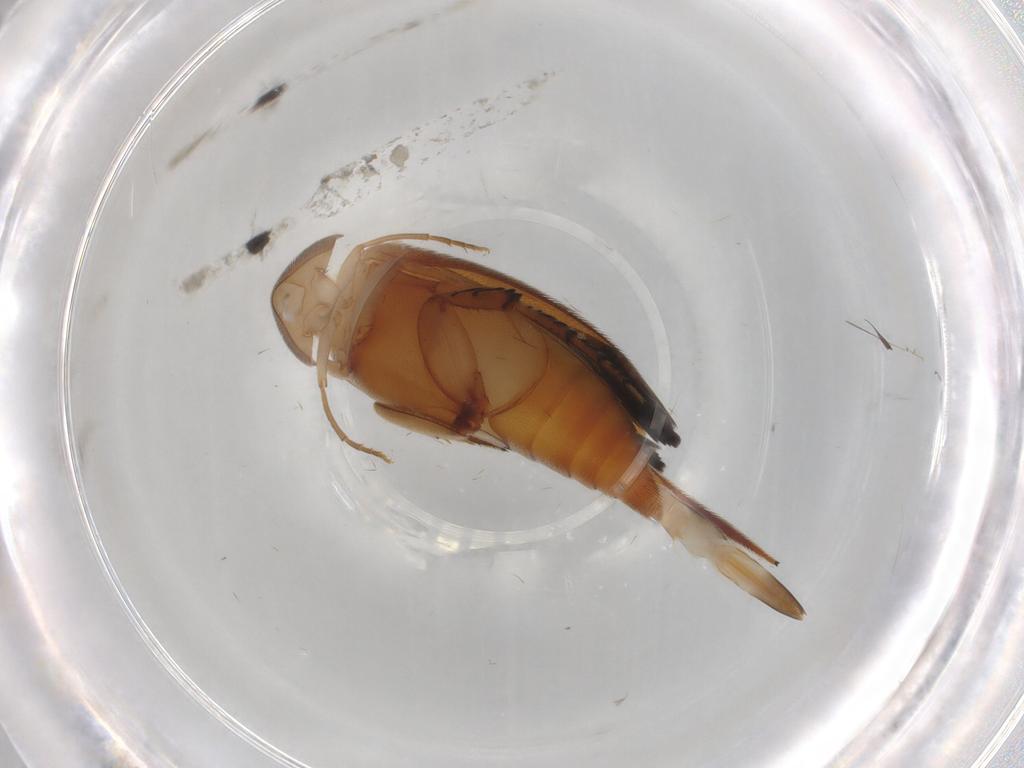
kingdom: Animalia
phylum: Arthropoda
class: Insecta
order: Coleoptera
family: Mordellidae
